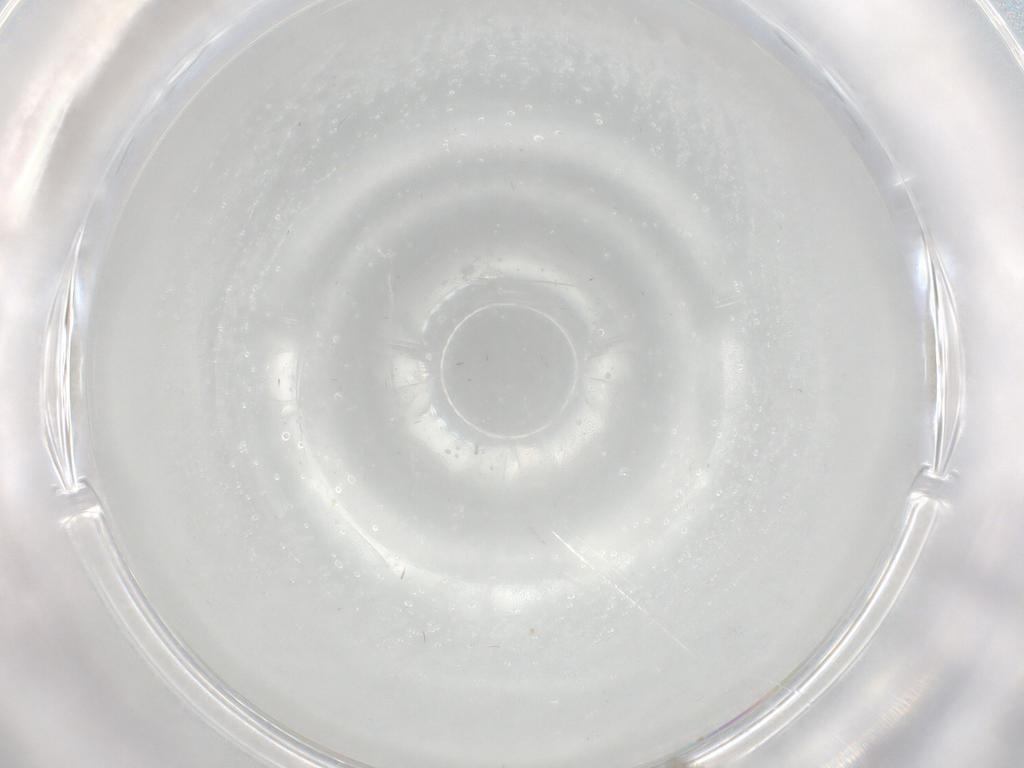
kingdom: Animalia
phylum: Arthropoda
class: Insecta
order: Diptera
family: Cecidomyiidae
